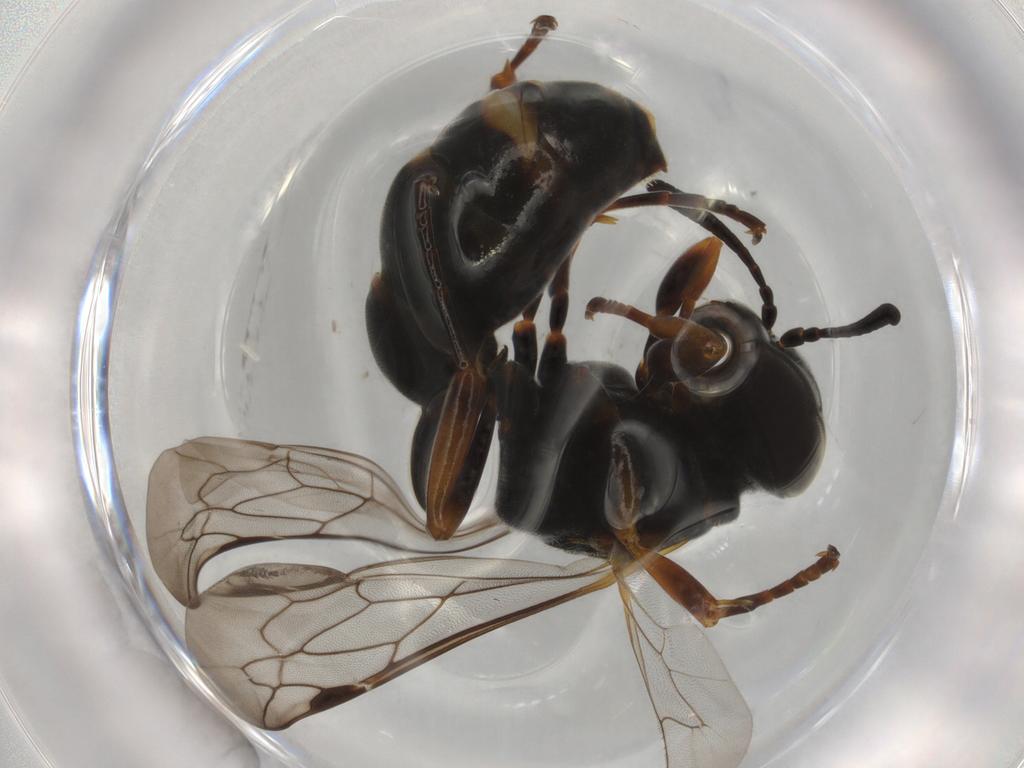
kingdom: Animalia
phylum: Arthropoda
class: Insecta
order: Hymenoptera
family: Crabronidae
